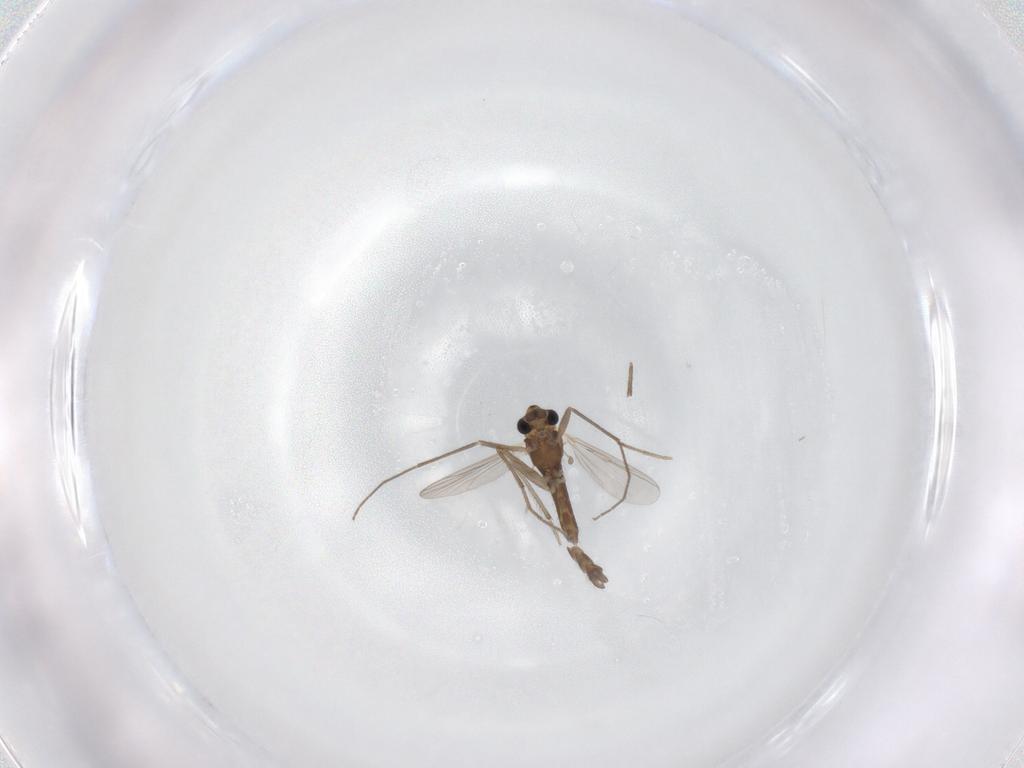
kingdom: Animalia
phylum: Arthropoda
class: Insecta
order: Diptera
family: Chironomidae
